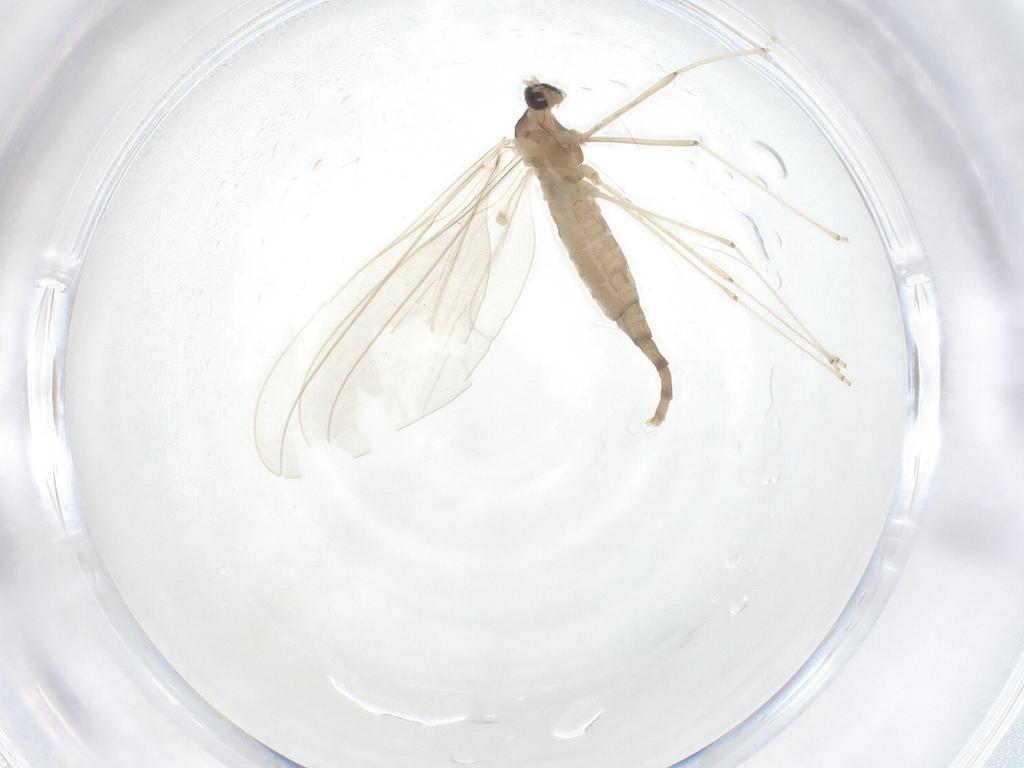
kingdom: Animalia
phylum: Arthropoda
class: Insecta
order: Diptera
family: Cecidomyiidae
